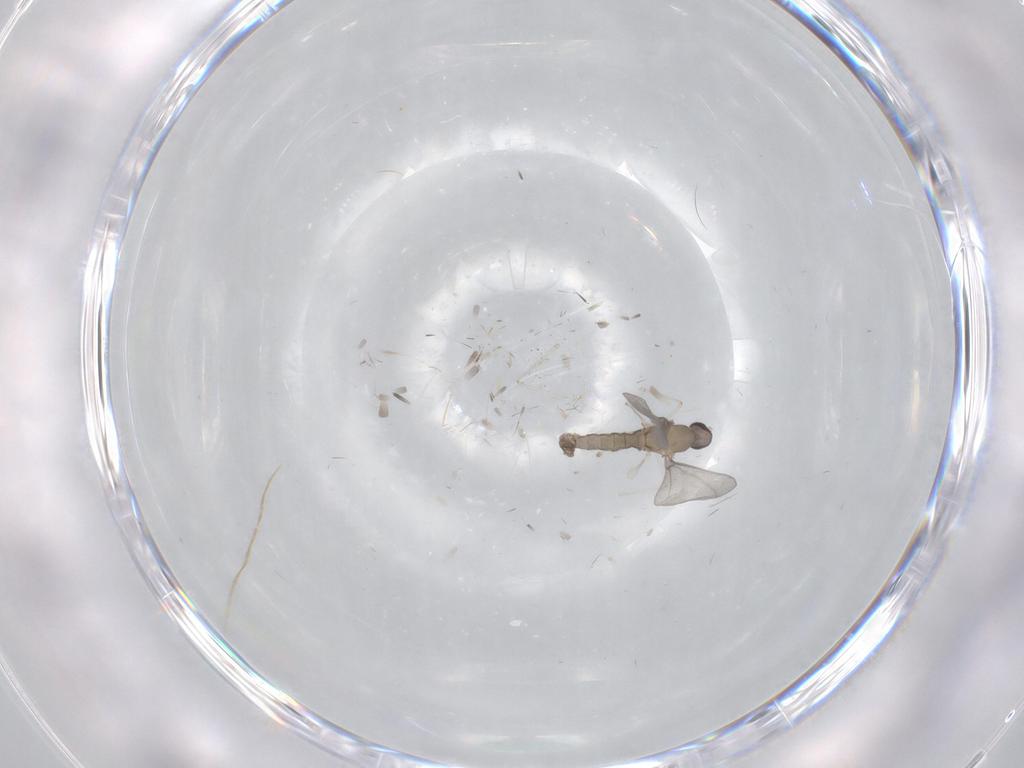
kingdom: Animalia
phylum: Arthropoda
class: Insecta
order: Diptera
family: Cecidomyiidae
